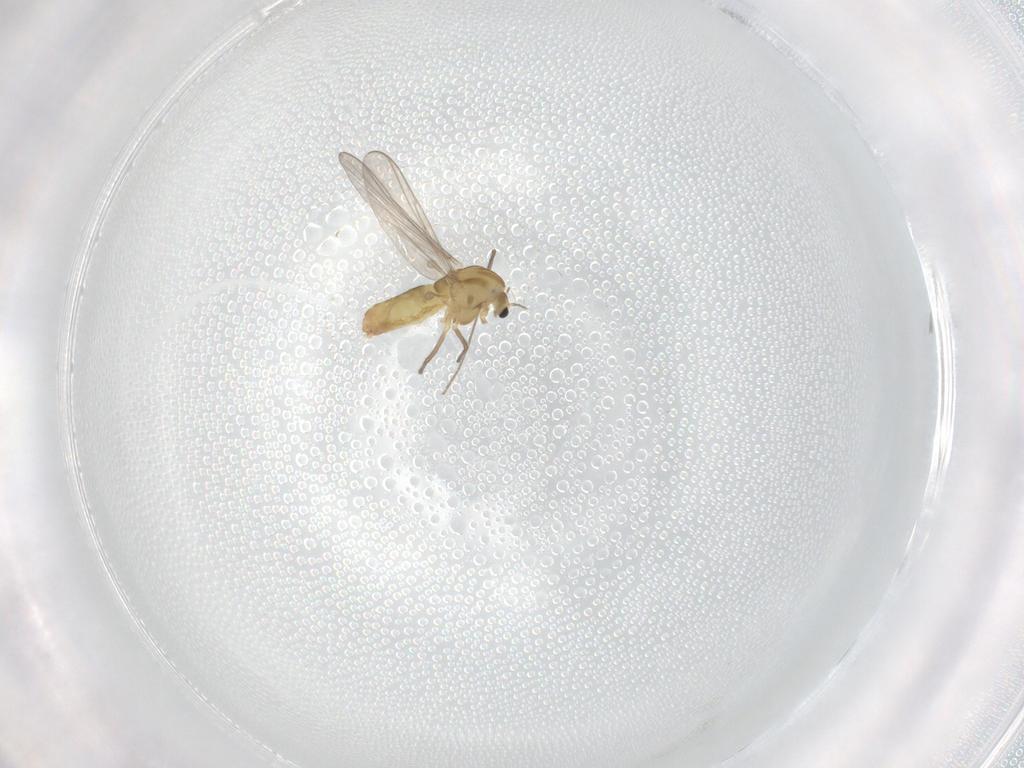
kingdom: Animalia
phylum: Arthropoda
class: Insecta
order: Diptera
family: Chironomidae
